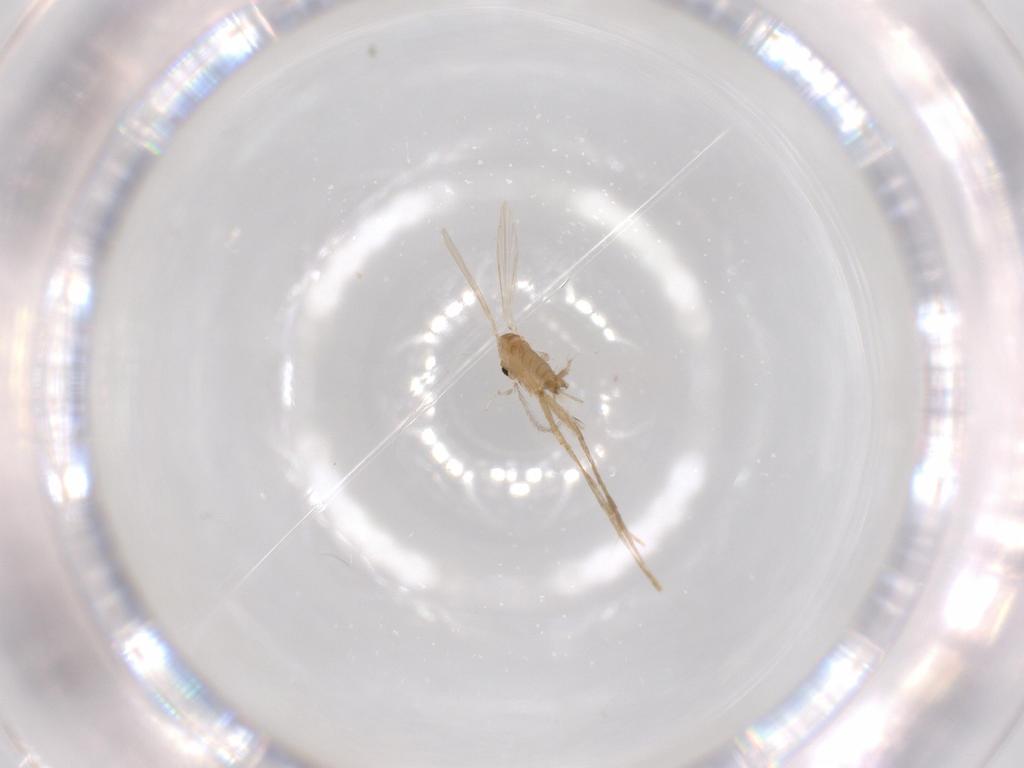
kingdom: Animalia
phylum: Arthropoda
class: Insecta
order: Diptera
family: Psychodidae
